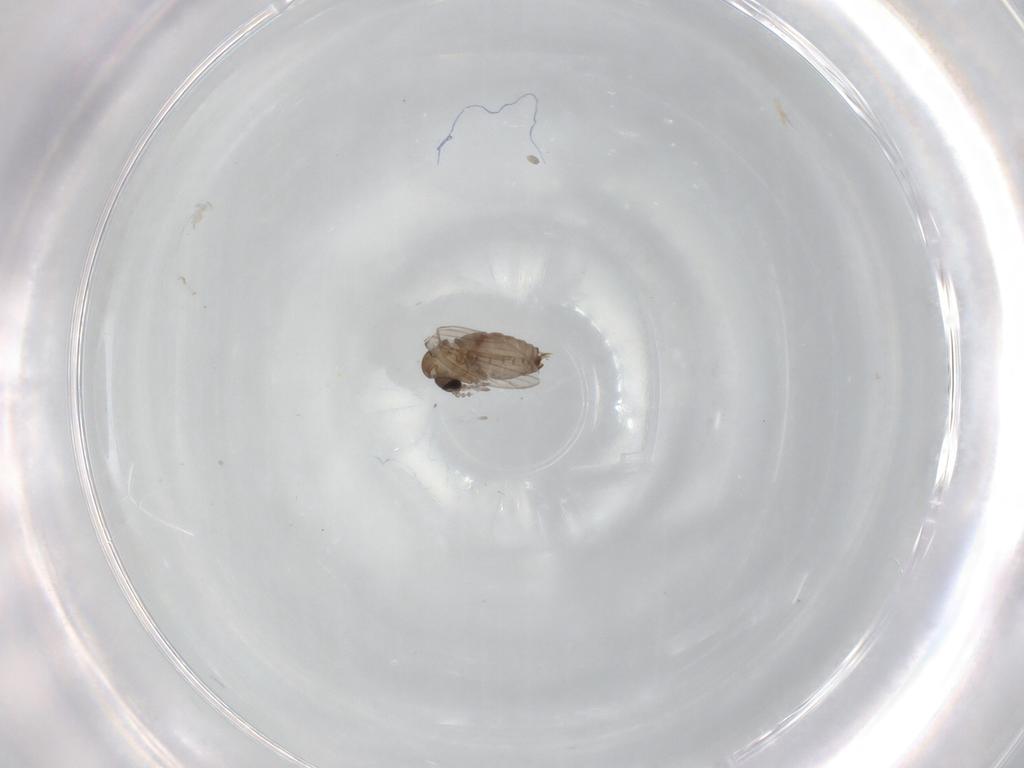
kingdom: Animalia
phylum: Arthropoda
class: Insecta
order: Diptera
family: Psychodidae
